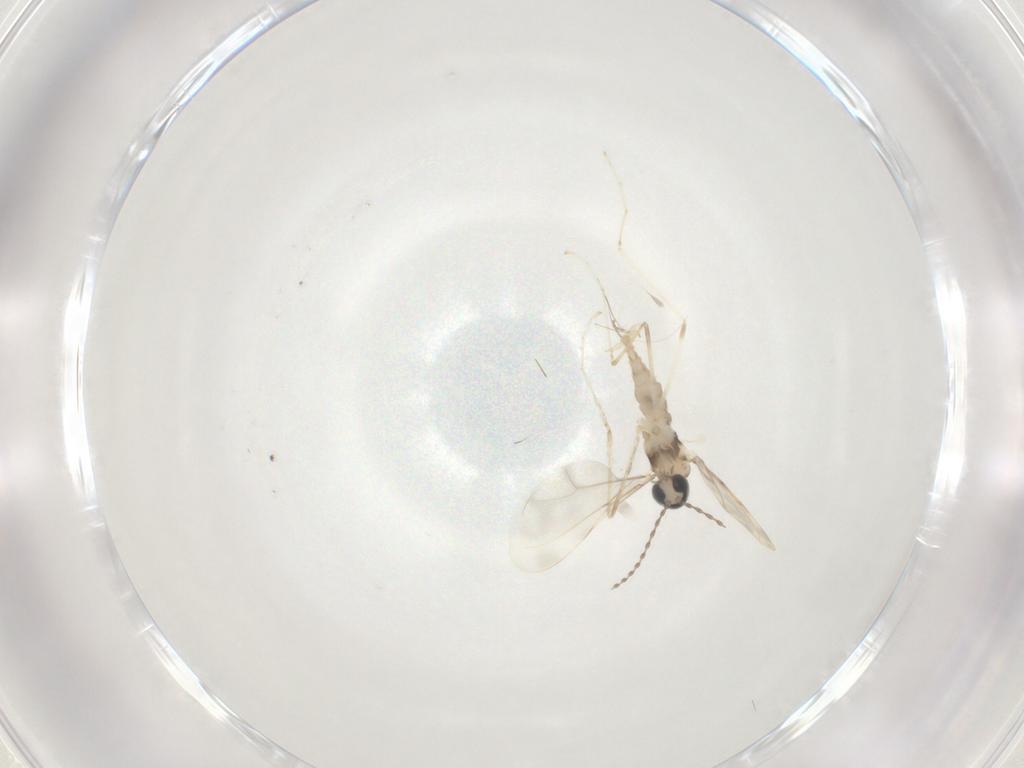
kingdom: Animalia
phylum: Arthropoda
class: Insecta
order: Diptera
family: Cecidomyiidae
